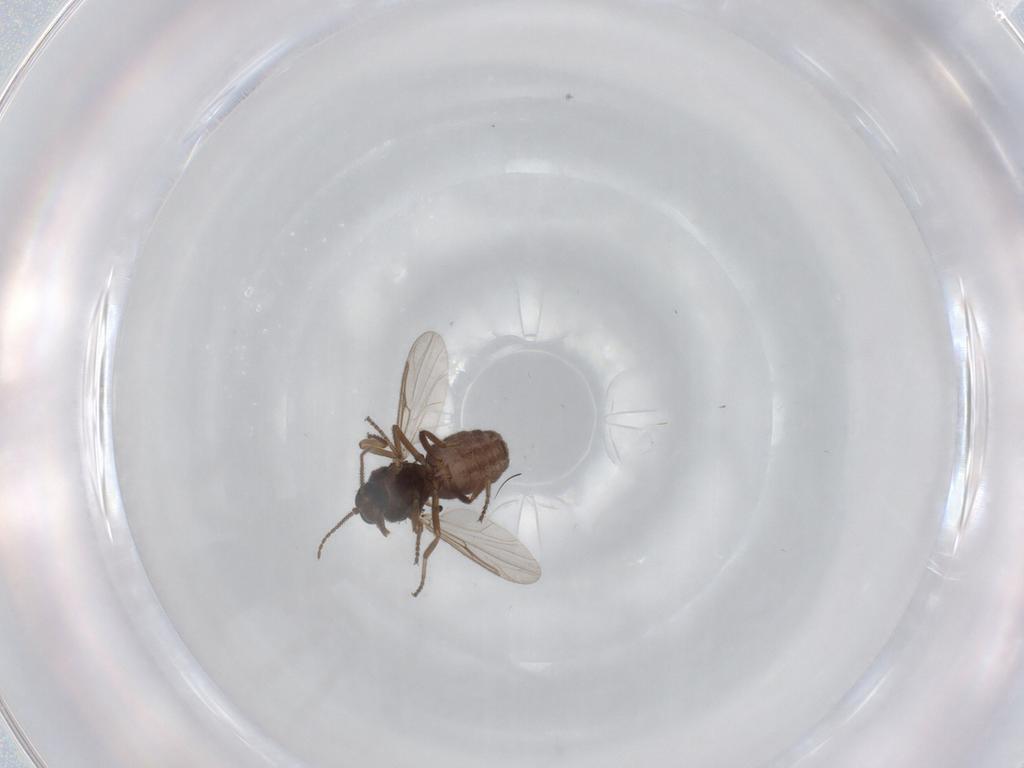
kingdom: Animalia
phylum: Arthropoda
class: Insecta
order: Diptera
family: Ceratopogonidae
